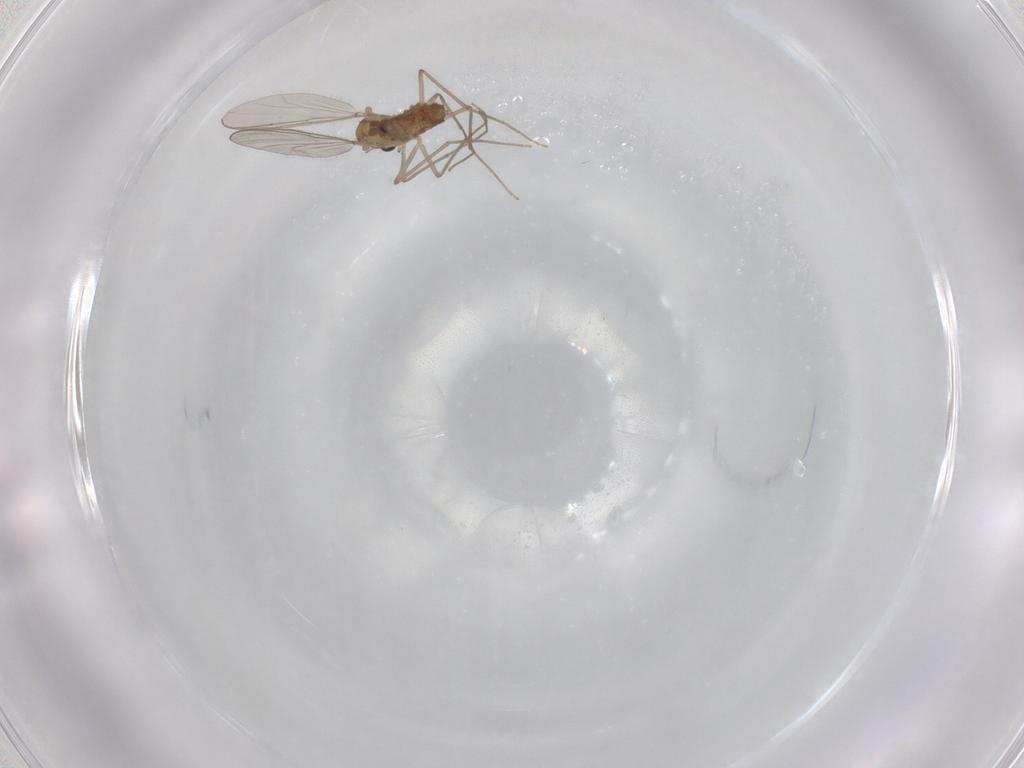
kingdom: Animalia
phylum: Arthropoda
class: Insecta
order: Diptera
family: Chironomidae
